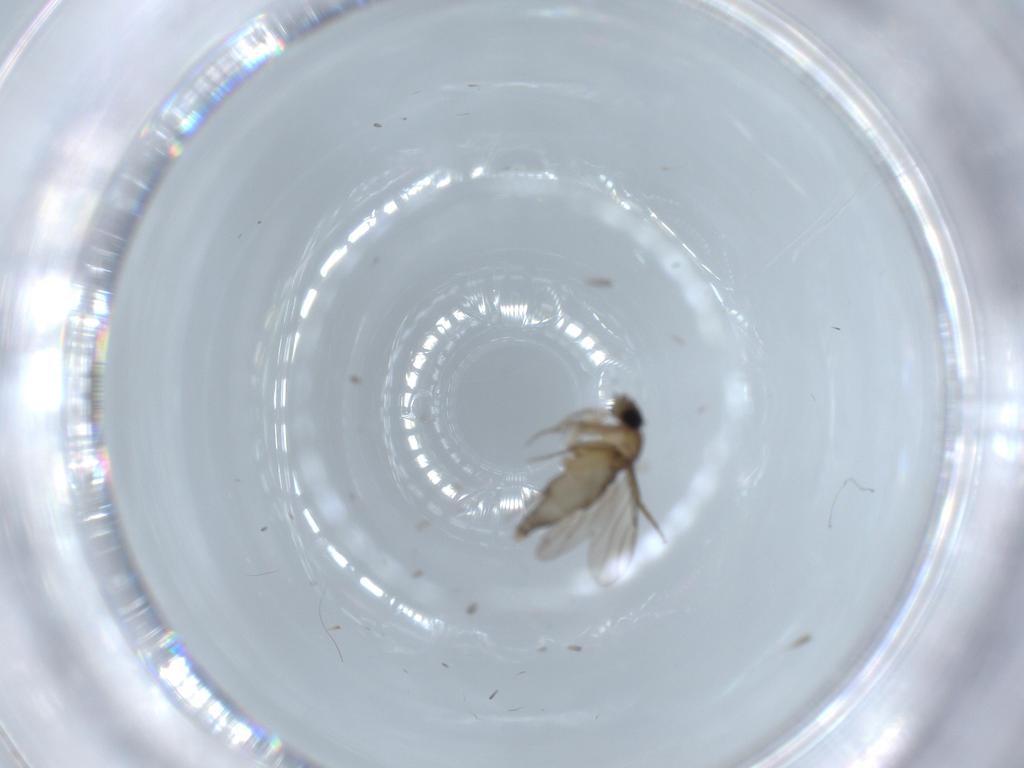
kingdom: Animalia
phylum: Arthropoda
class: Insecta
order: Diptera
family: Phoridae
